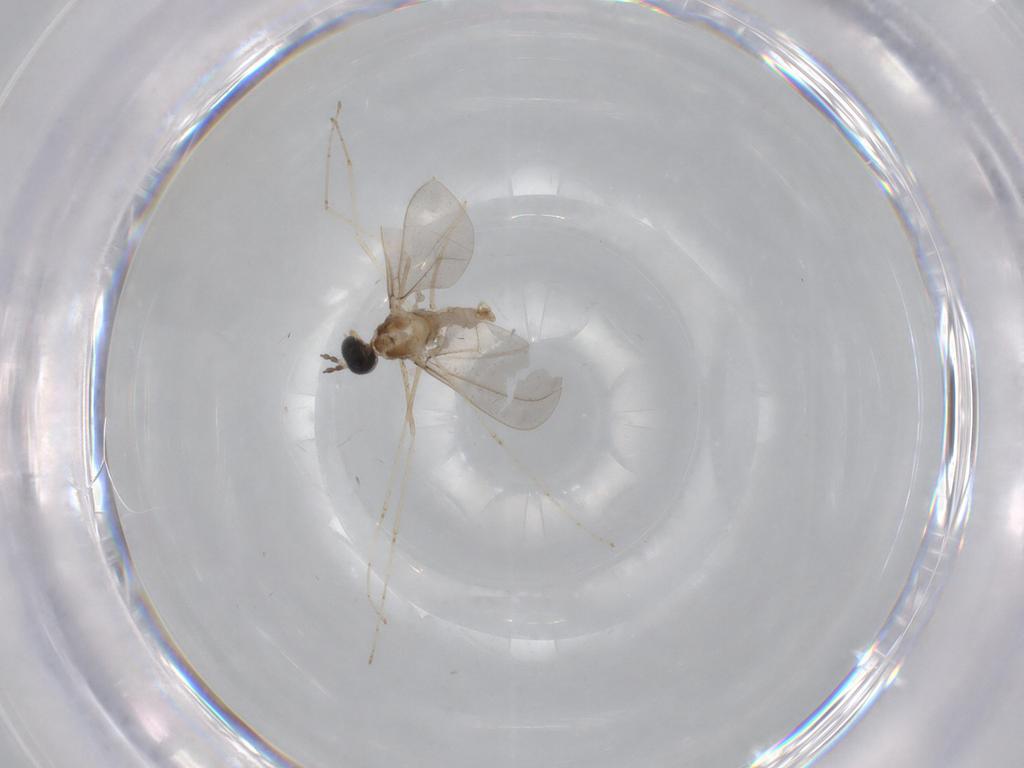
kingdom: Animalia
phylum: Arthropoda
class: Insecta
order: Diptera
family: Cecidomyiidae
